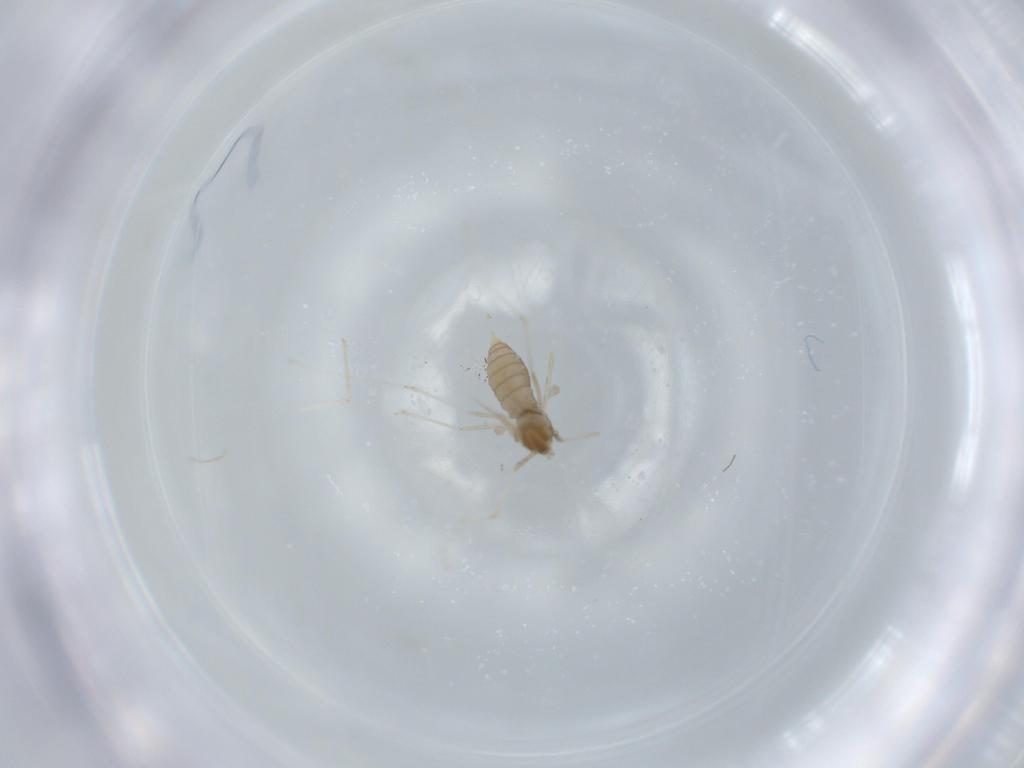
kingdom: Animalia
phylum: Arthropoda
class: Insecta
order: Diptera
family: Cecidomyiidae
